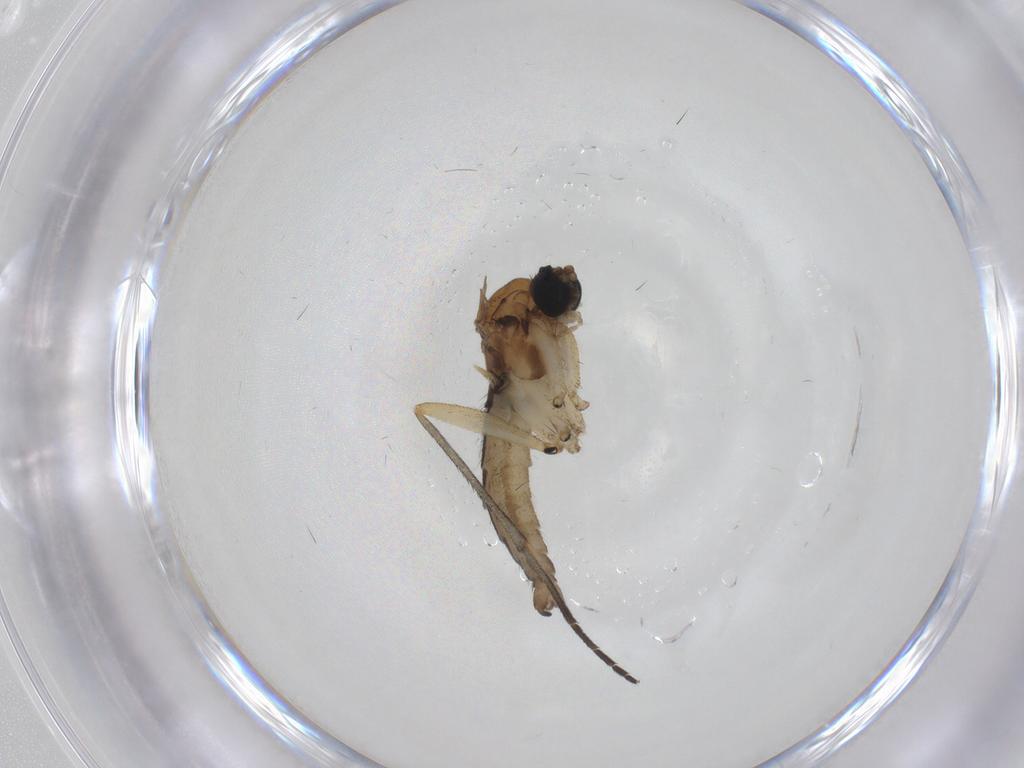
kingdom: Animalia
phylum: Arthropoda
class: Insecta
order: Diptera
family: Sciaridae
